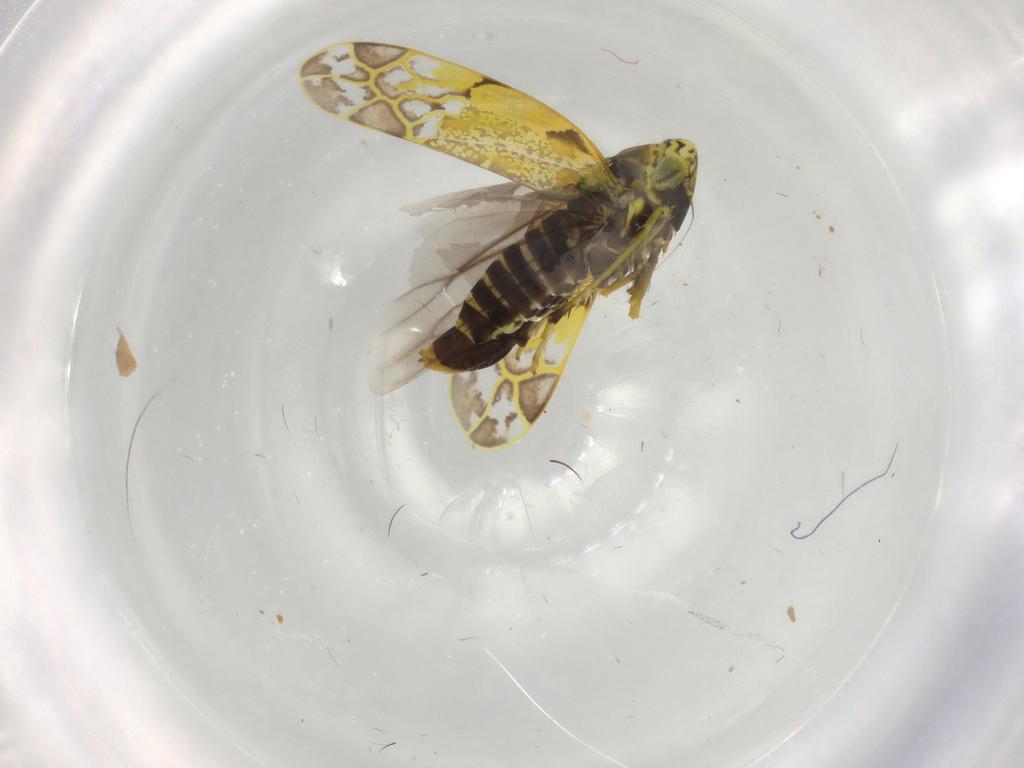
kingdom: Animalia
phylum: Arthropoda
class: Insecta
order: Hemiptera
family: Cicadellidae
